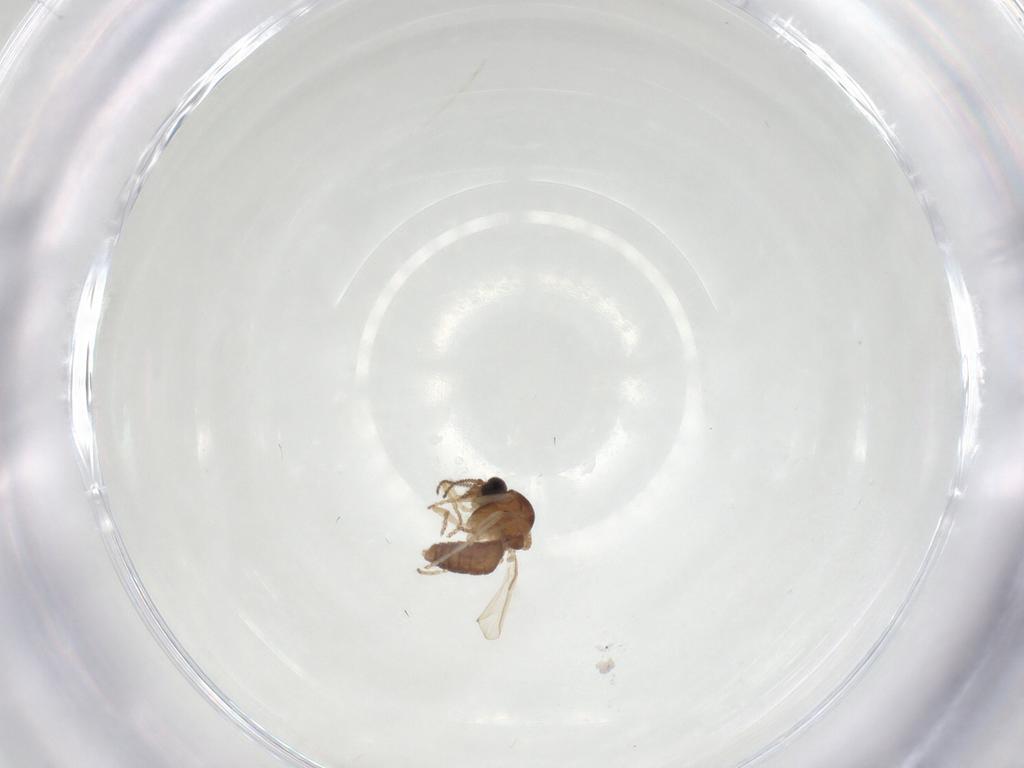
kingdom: Animalia
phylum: Arthropoda
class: Insecta
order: Diptera
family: Ceratopogonidae
